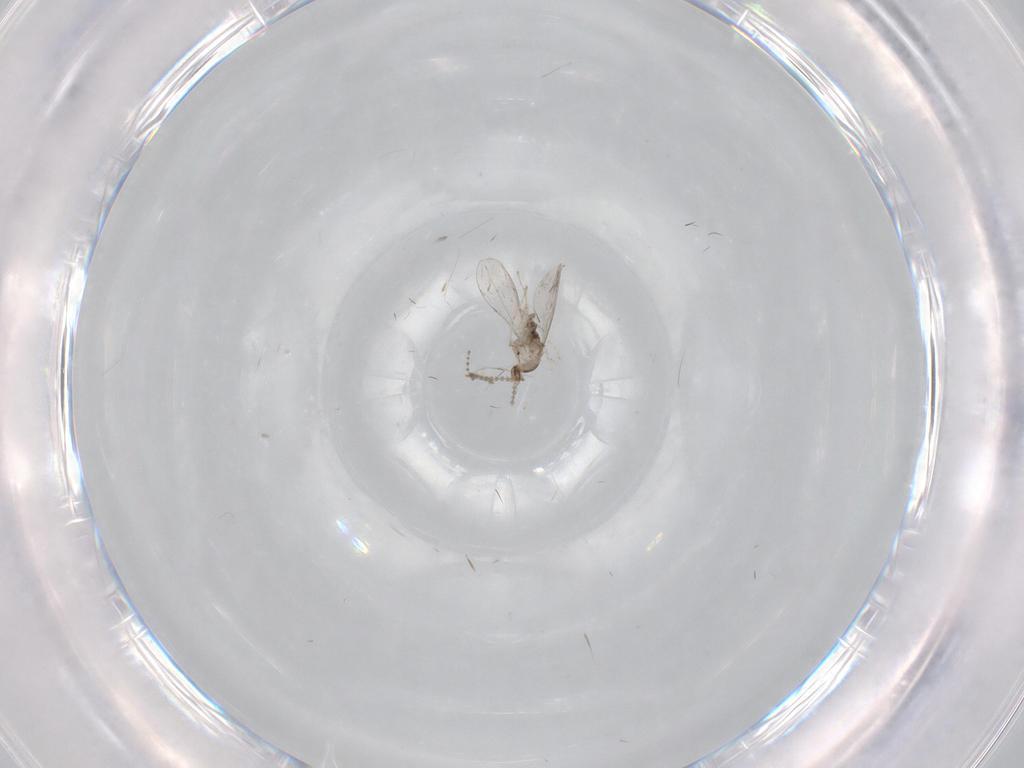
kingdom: Animalia
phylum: Arthropoda
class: Insecta
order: Diptera
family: Cecidomyiidae
